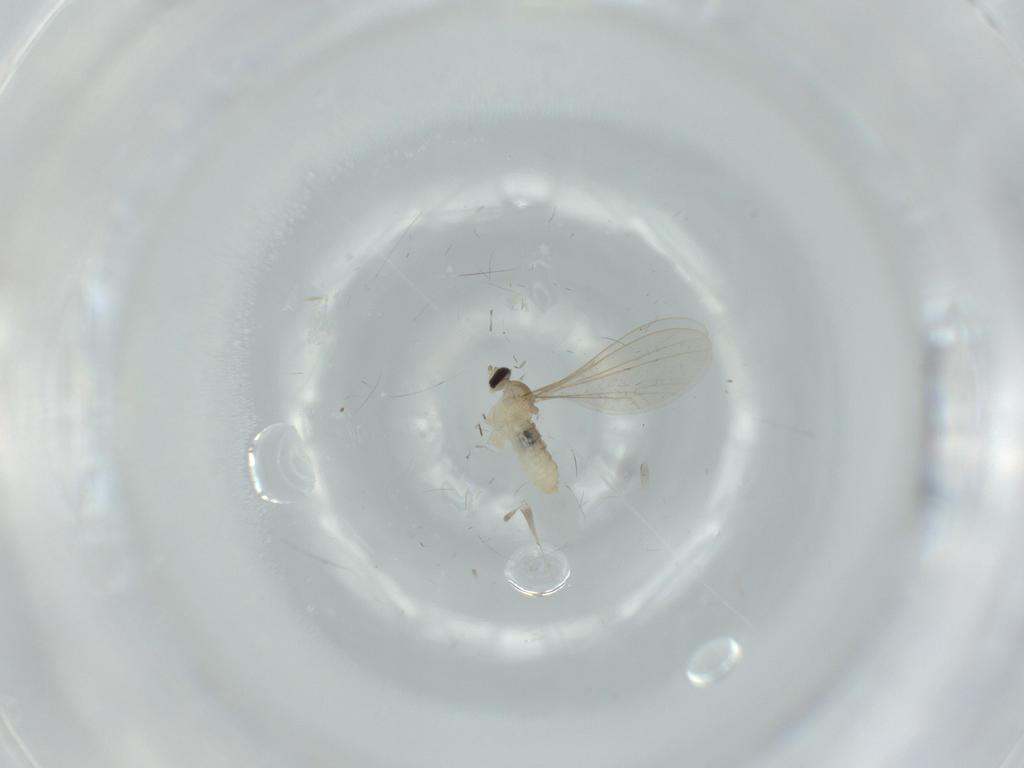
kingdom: Animalia
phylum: Arthropoda
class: Insecta
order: Diptera
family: Cecidomyiidae
